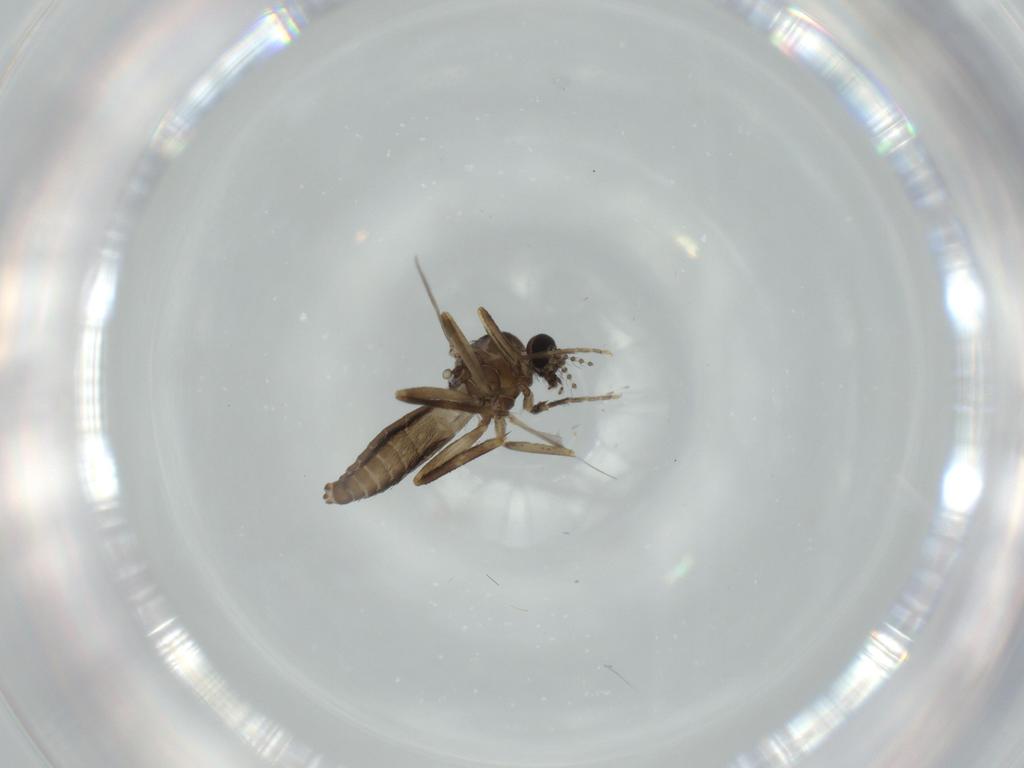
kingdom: Animalia
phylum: Arthropoda
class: Insecta
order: Diptera
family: Ceratopogonidae
